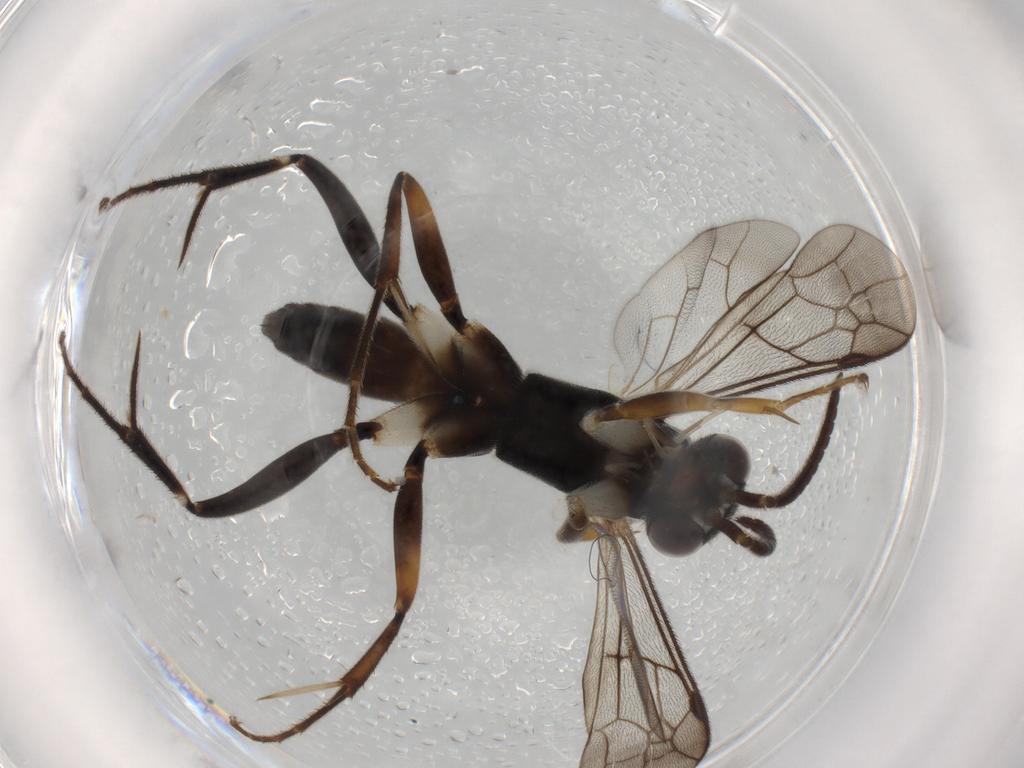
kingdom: Animalia
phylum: Arthropoda
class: Insecta
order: Hymenoptera
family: Pompilidae
